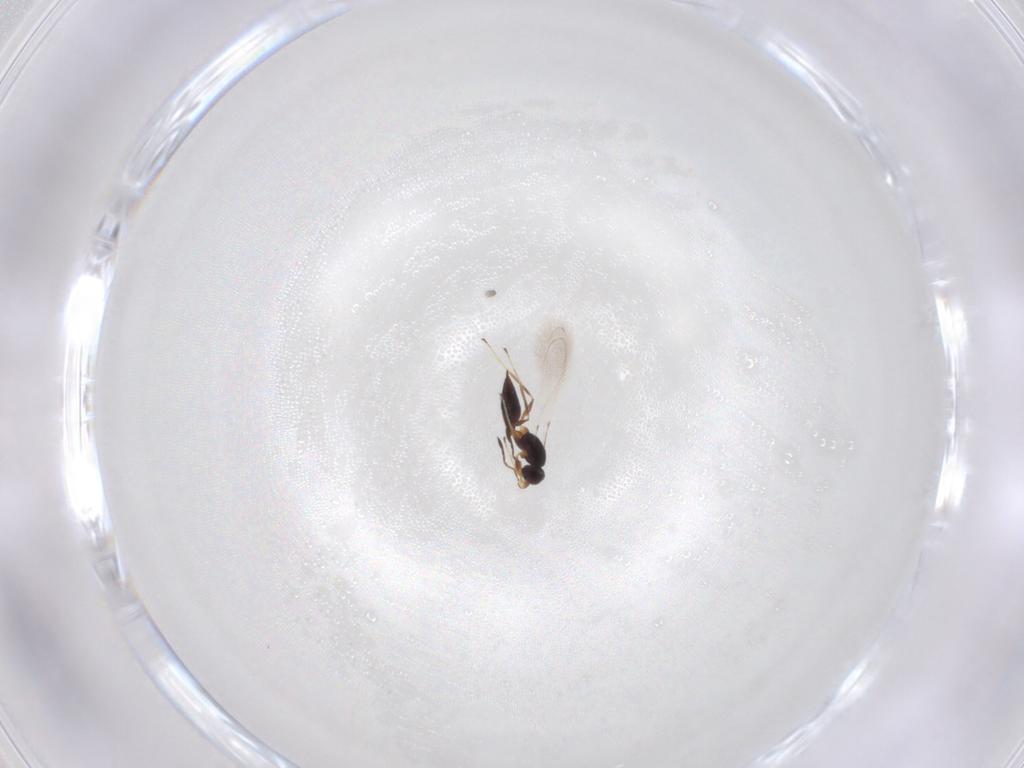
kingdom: Animalia
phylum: Arthropoda
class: Insecta
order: Hymenoptera
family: Mymaridae
